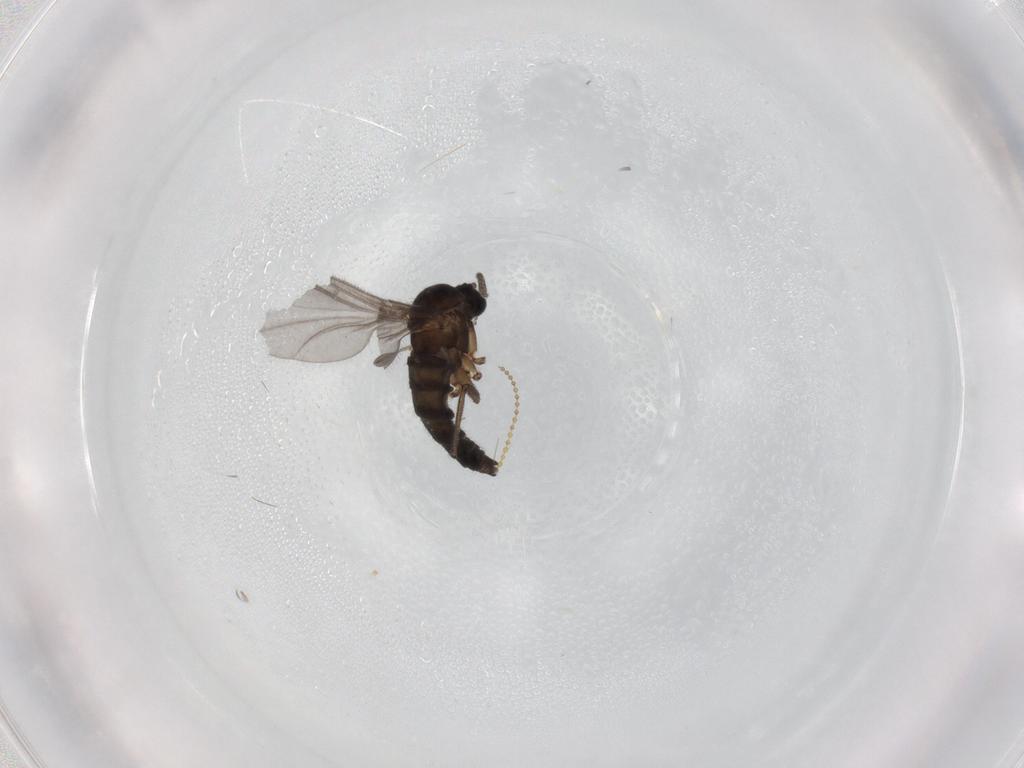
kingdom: Animalia
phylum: Arthropoda
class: Insecta
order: Diptera
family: Sciaridae
